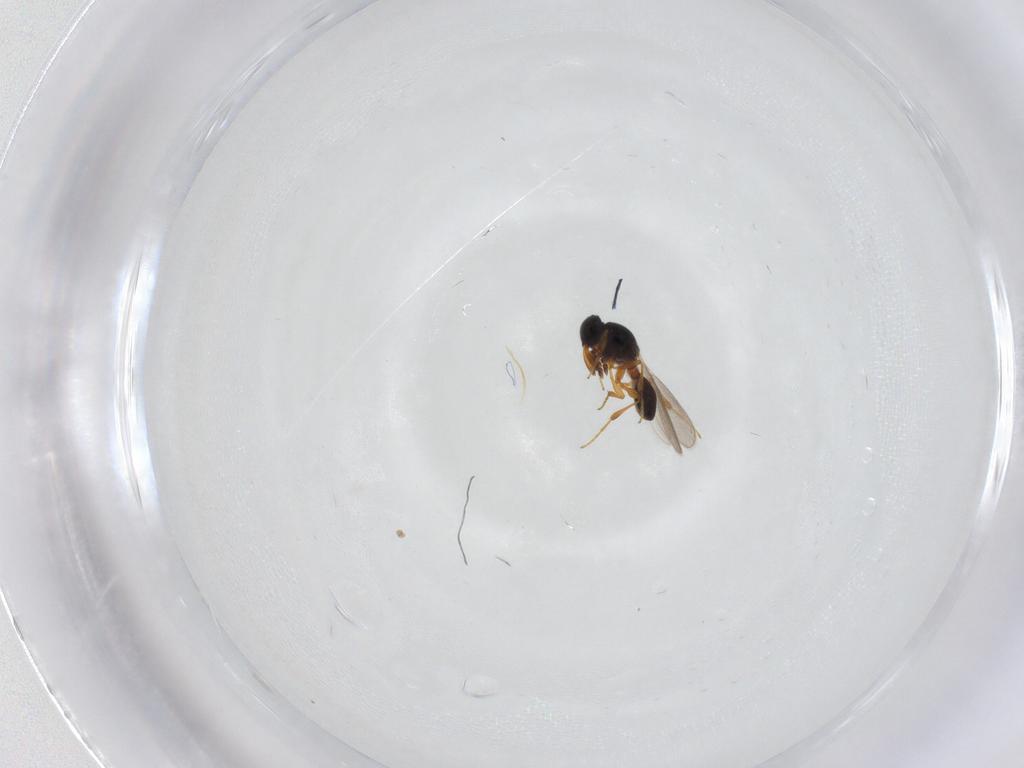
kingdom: Animalia
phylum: Arthropoda
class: Insecta
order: Hymenoptera
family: Platygastridae
